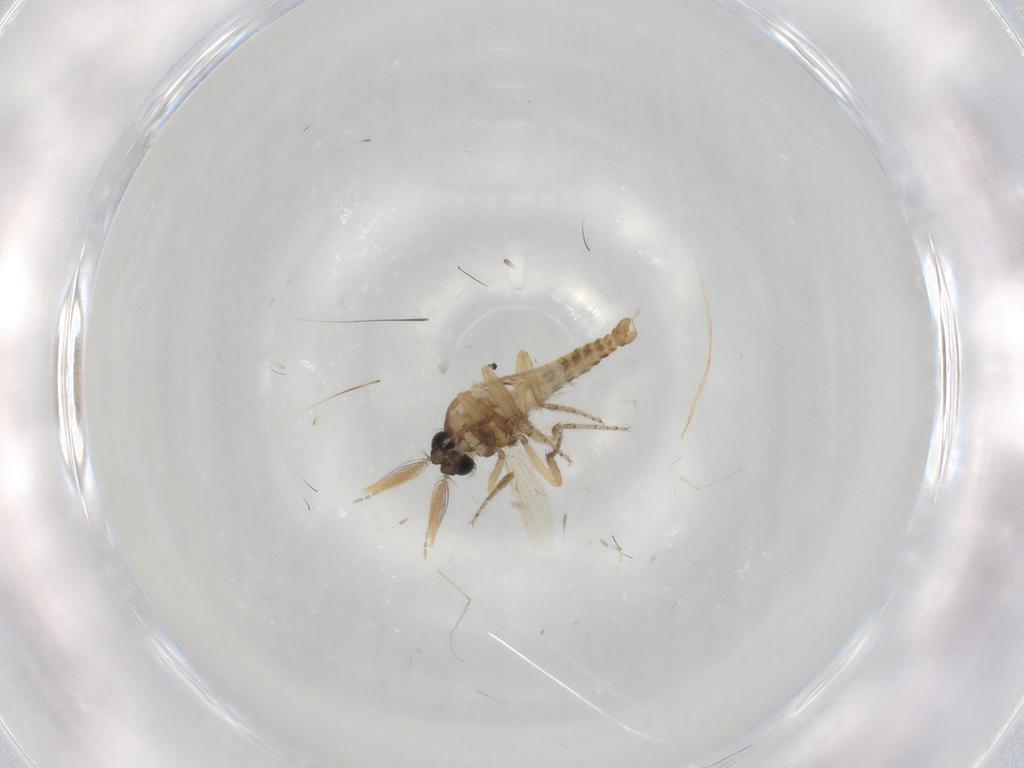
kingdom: Animalia
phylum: Arthropoda
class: Insecta
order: Diptera
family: Ceratopogonidae
